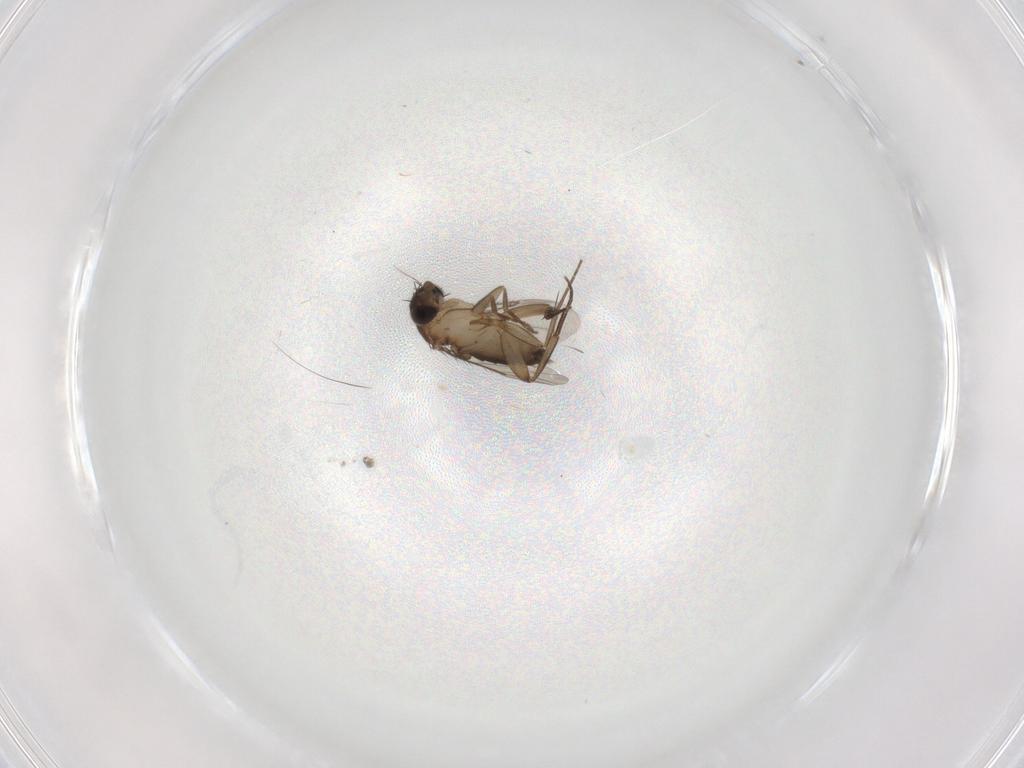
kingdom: Animalia
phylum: Arthropoda
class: Insecta
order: Diptera
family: Phoridae
